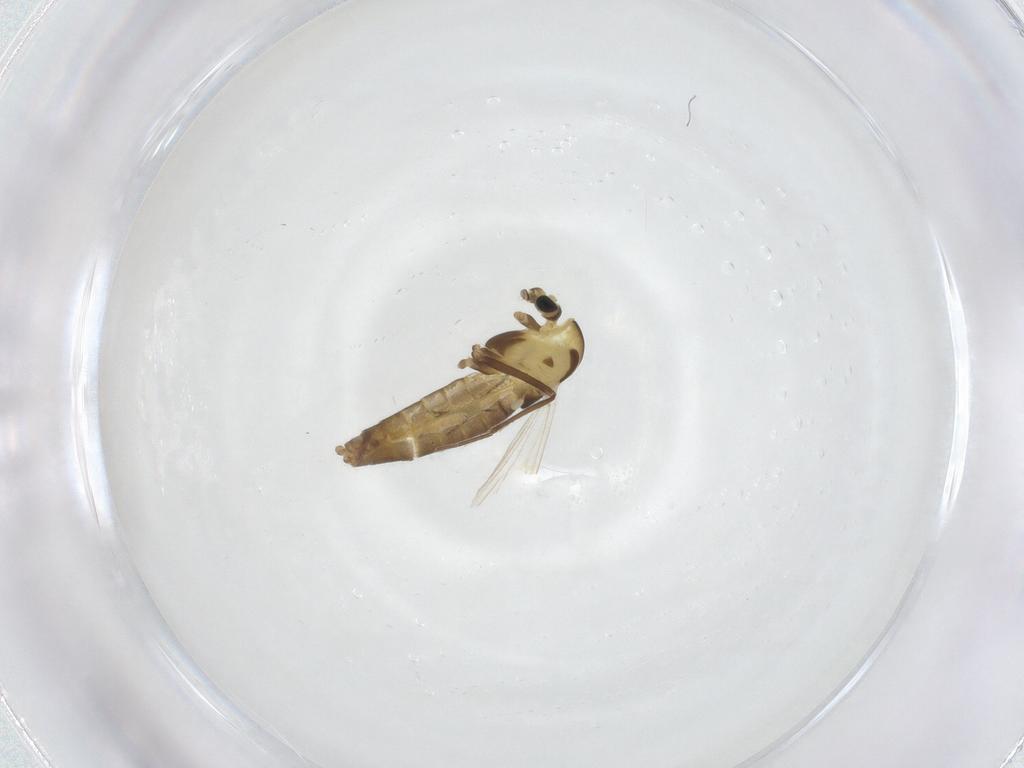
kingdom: Animalia
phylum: Arthropoda
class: Insecta
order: Diptera
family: Chironomidae
